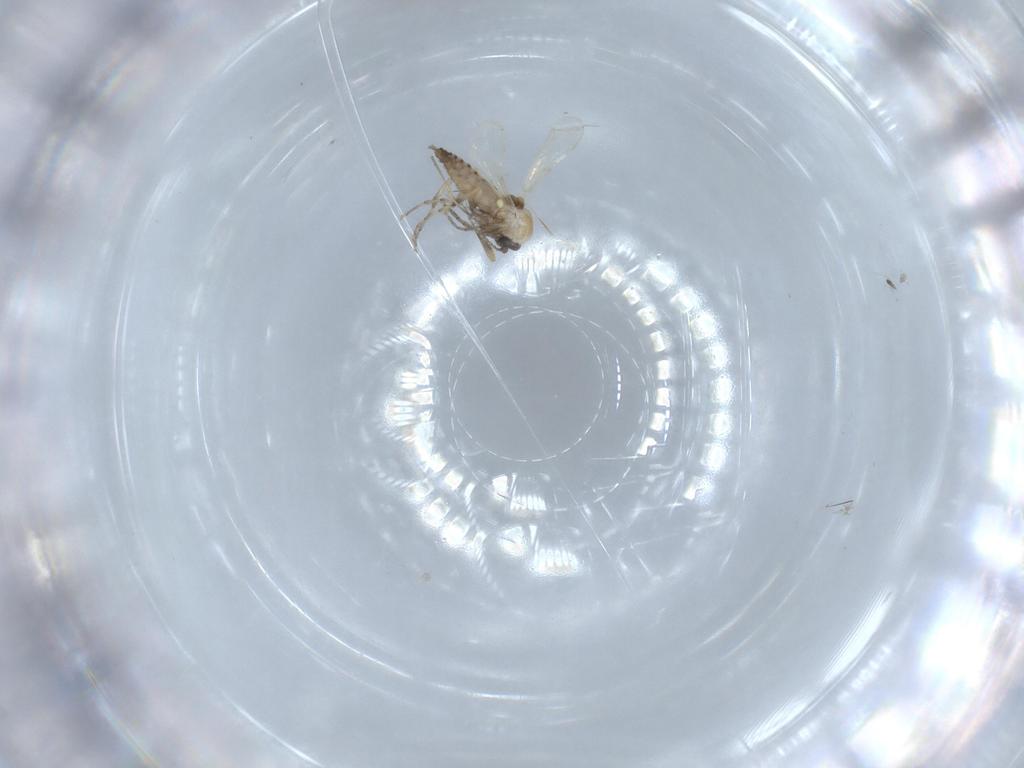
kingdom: Animalia
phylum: Arthropoda
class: Insecta
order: Diptera
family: Ceratopogonidae
